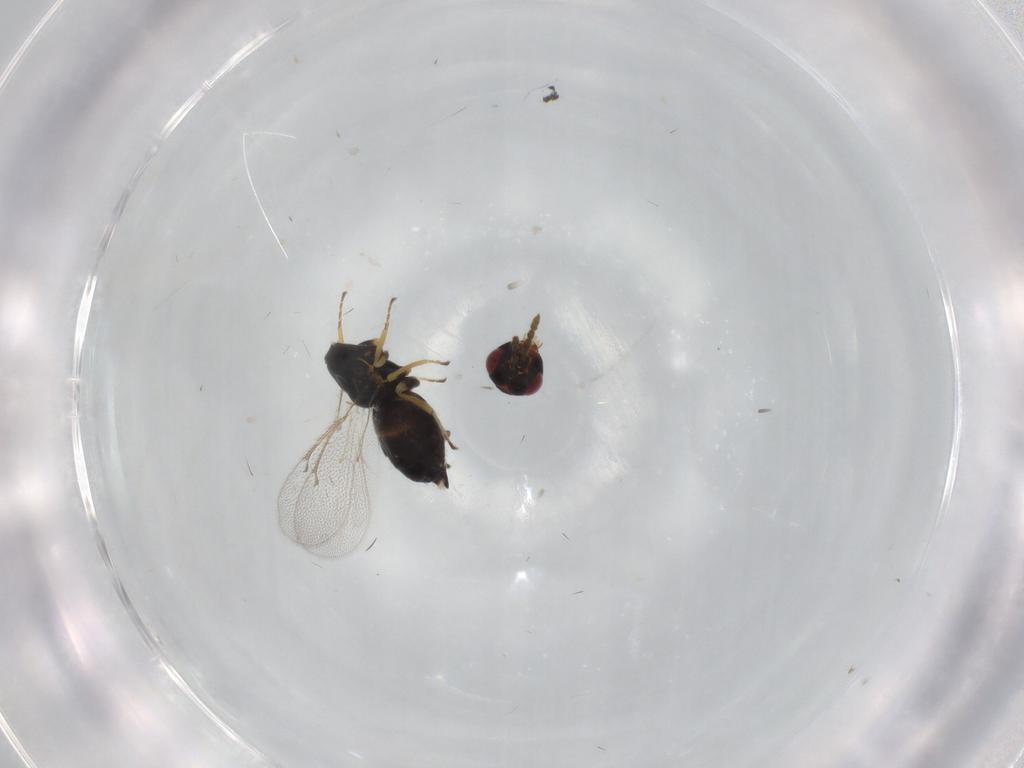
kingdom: Animalia
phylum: Arthropoda
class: Insecta
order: Hymenoptera
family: Eulophidae
